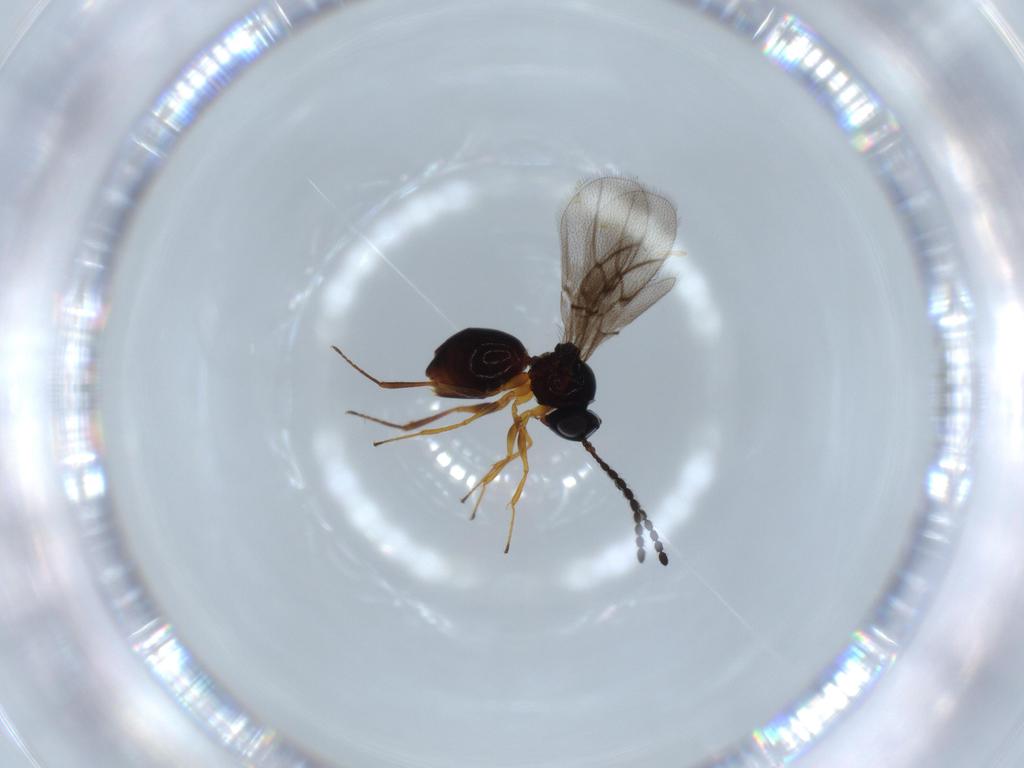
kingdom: Animalia
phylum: Arthropoda
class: Insecta
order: Hymenoptera
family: Figitidae
